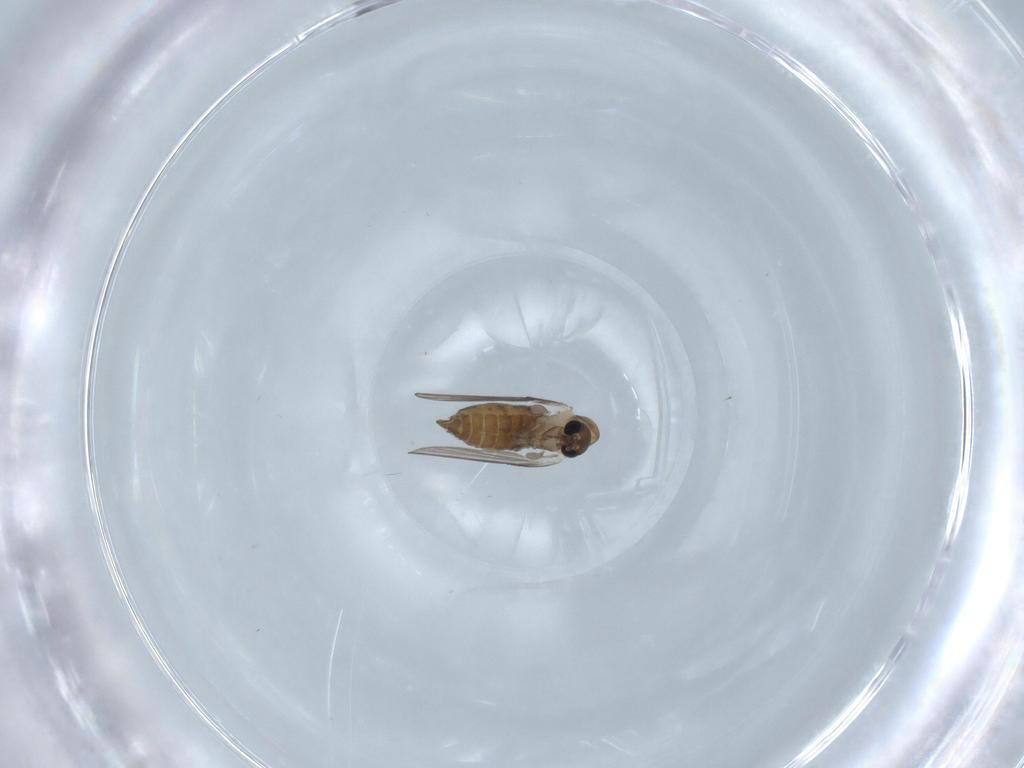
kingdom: Animalia
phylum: Arthropoda
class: Insecta
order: Diptera
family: Psychodidae
